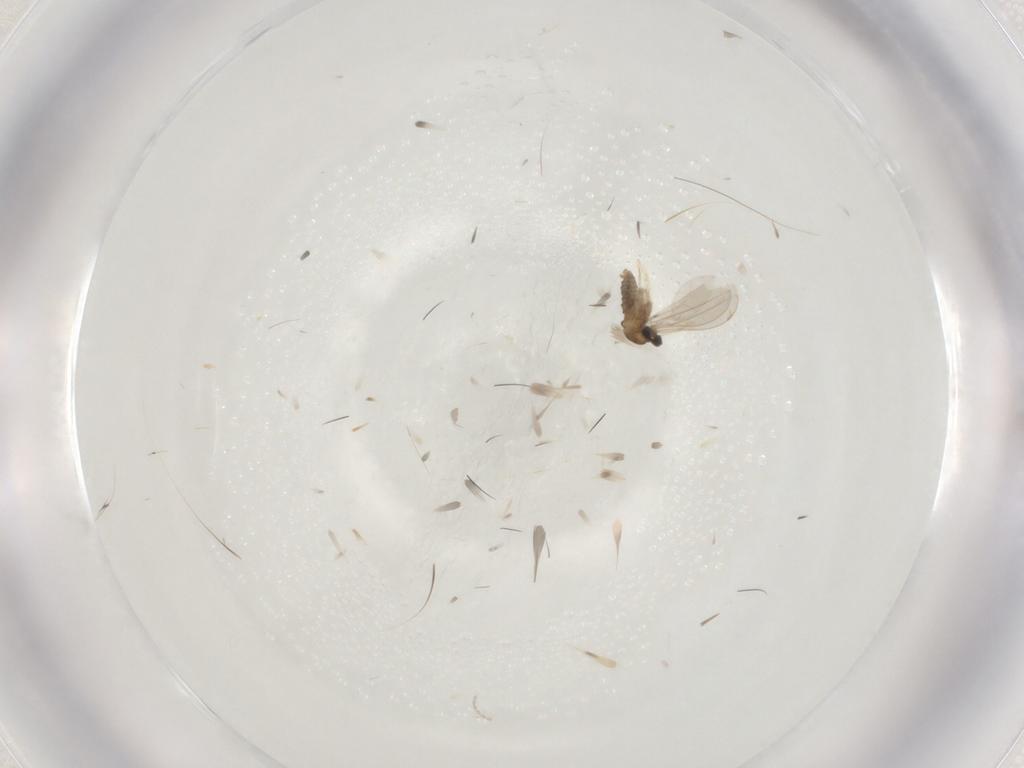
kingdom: Animalia
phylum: Arthropoda
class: Insecta
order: Diptera
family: Cecidomyiidae
